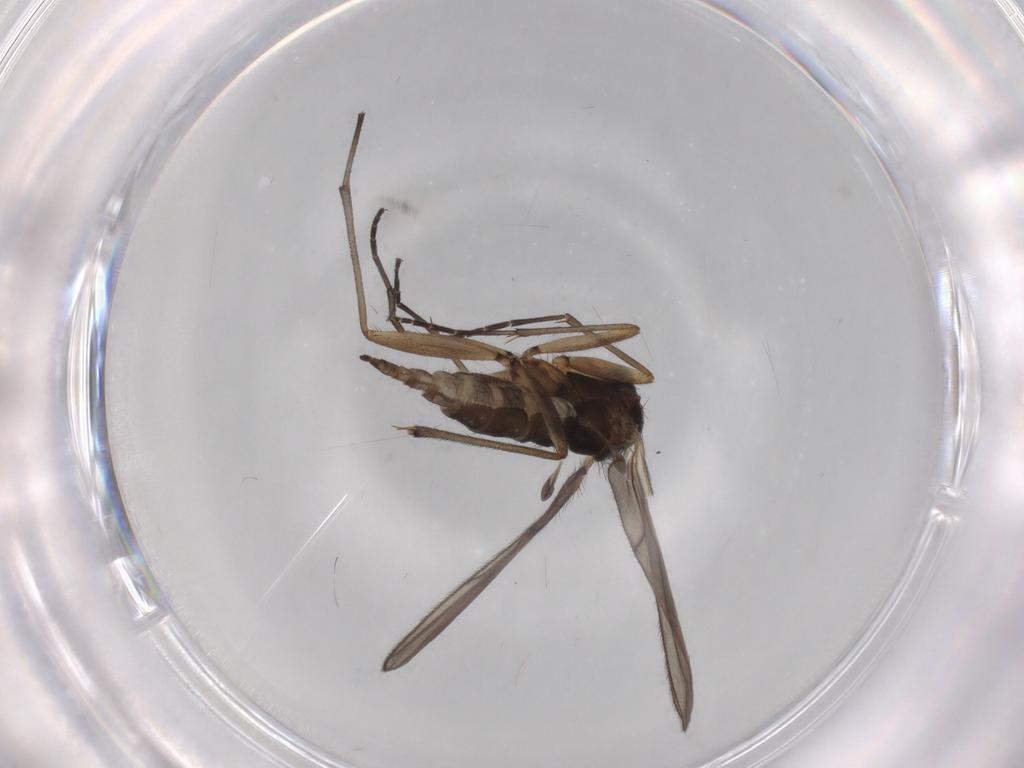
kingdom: Animalia
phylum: Arthropoda
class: Insecta
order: Diptera
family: Sciaridae
